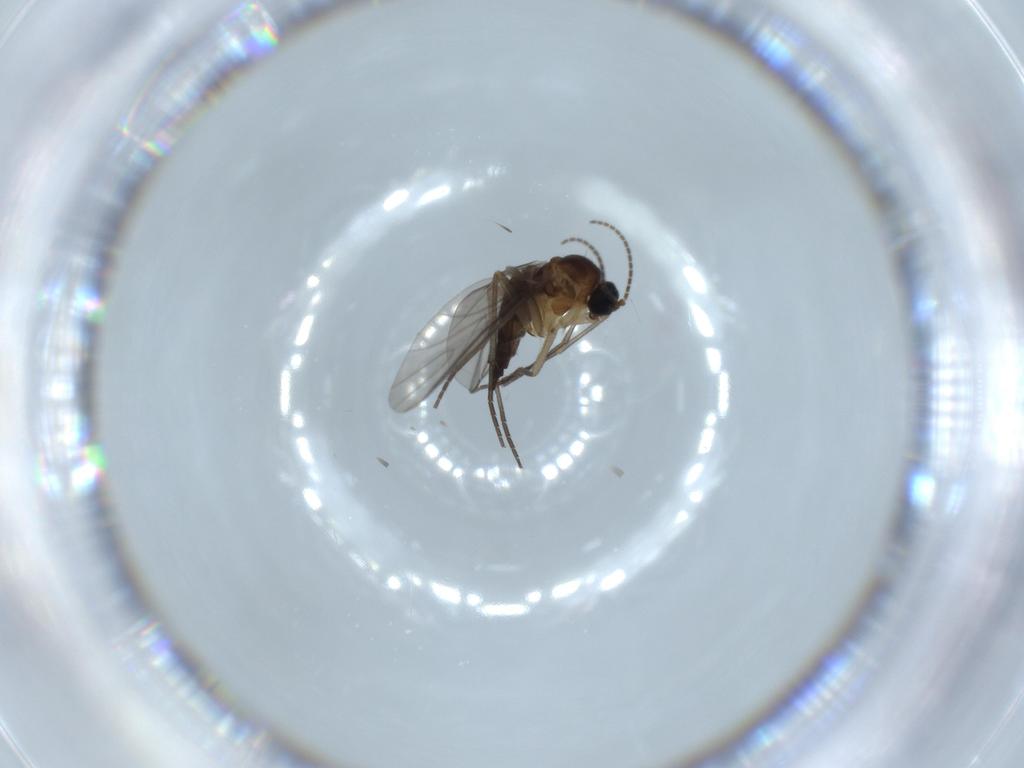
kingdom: Animalia
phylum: Arthropoda
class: Insecta
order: Diptera
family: Sciaridae
